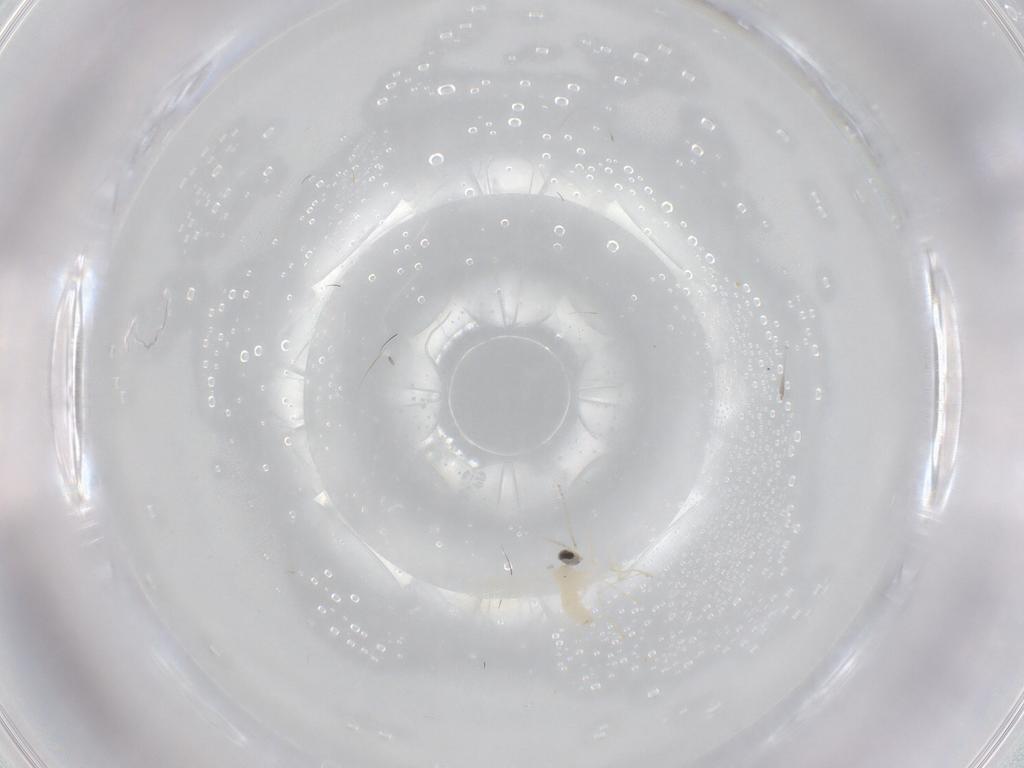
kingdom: Animalia
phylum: Arthropoda
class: Insecta
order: Diptera
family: Cecidomyiidae
